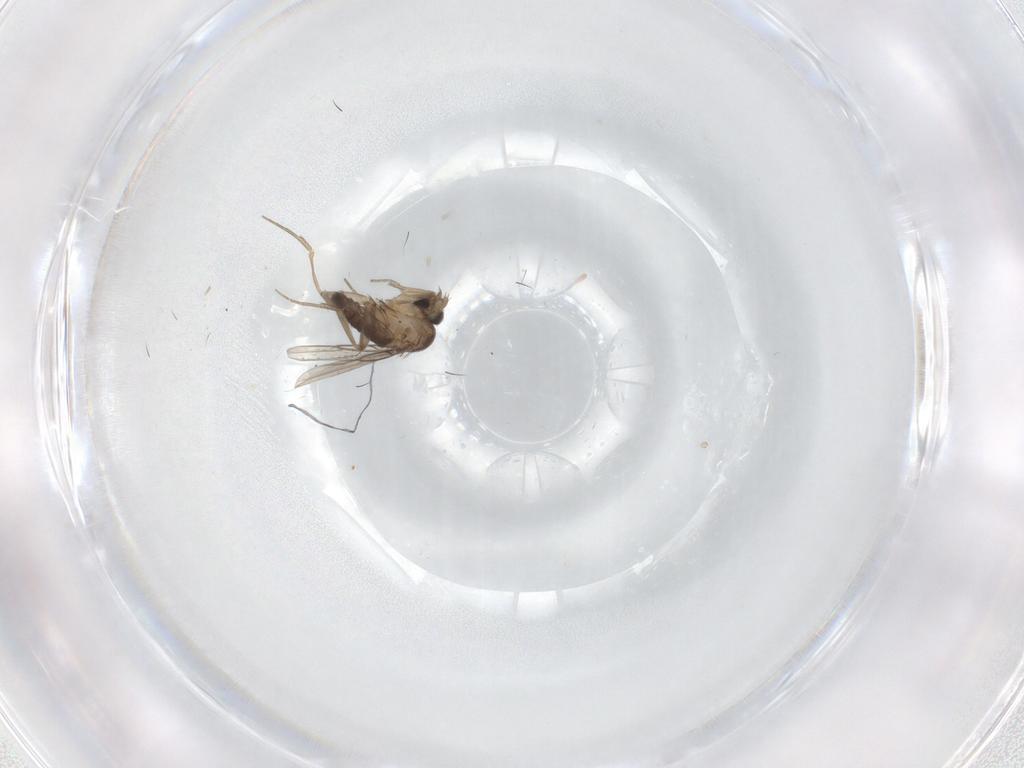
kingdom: Animalia
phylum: Arthropoda
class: Insecta
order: Diptera
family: Phoridae
